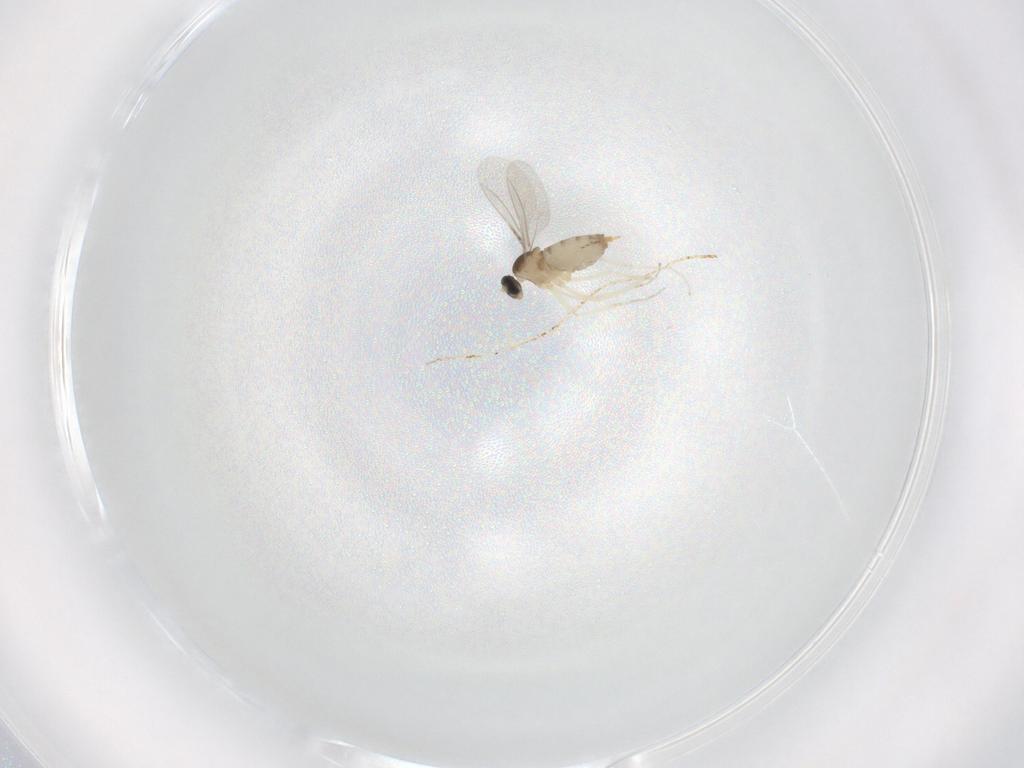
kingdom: Animalia
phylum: Arthropoda
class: Insecta
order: Diptera
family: Cecidomyiidae
